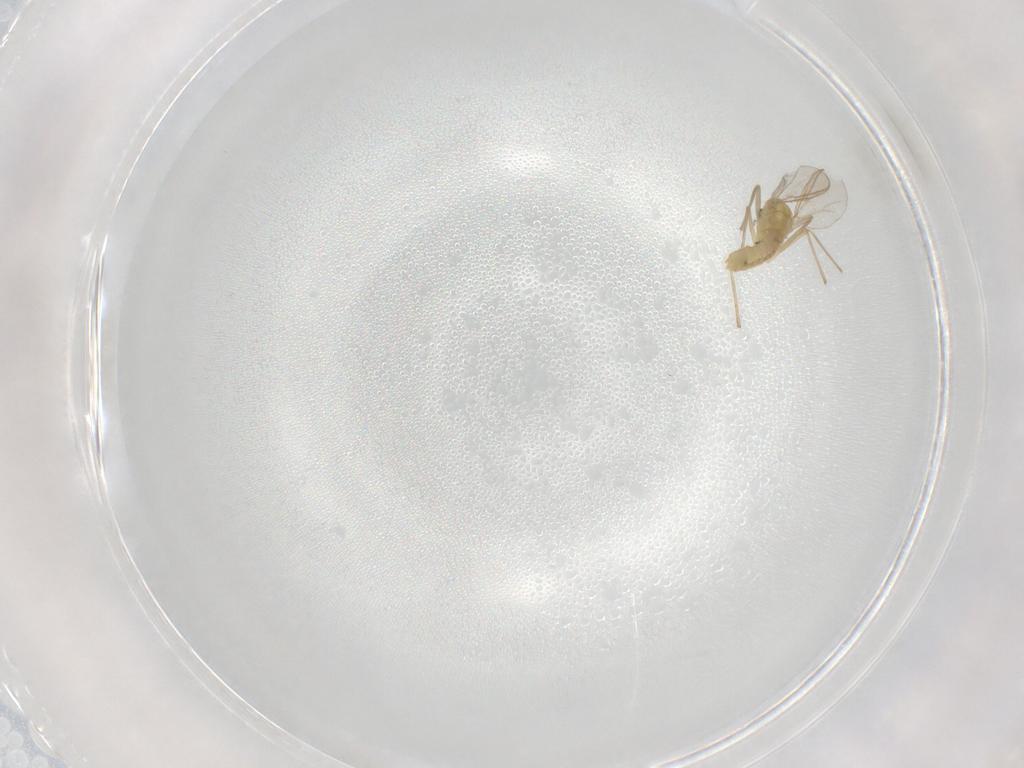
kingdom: Animalia
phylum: Arthropoda
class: Insecta
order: Diptera
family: Chironomidae
